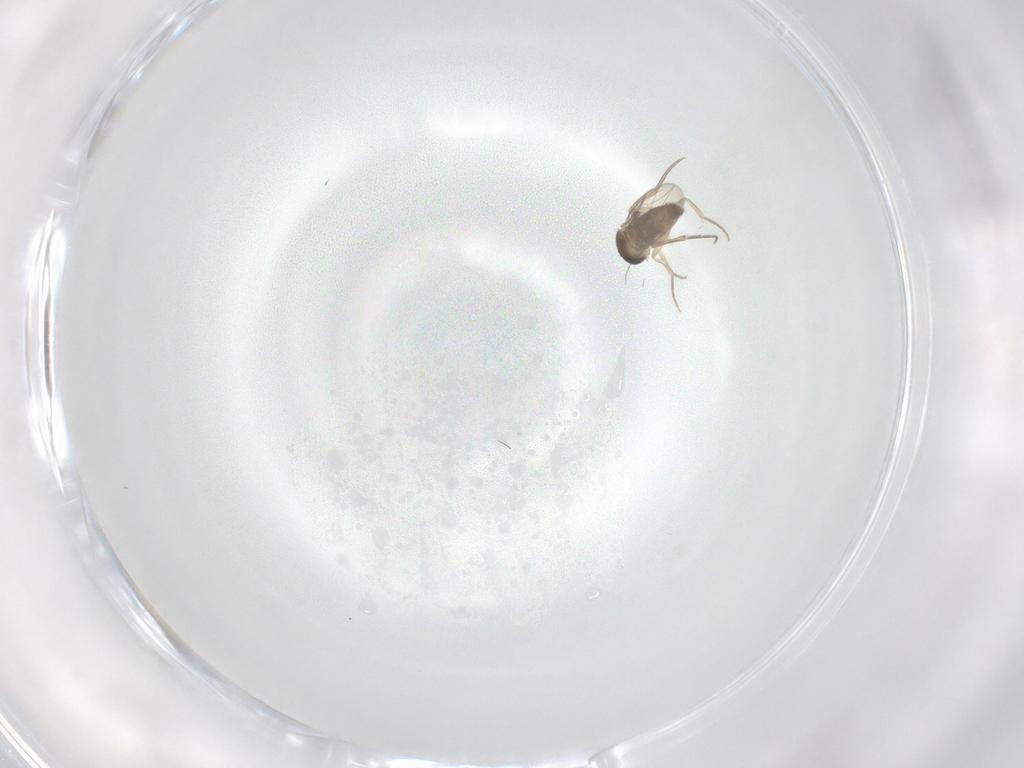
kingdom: Animalia
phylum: Arthropoda
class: Insecta
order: Diptera
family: Phoridae
